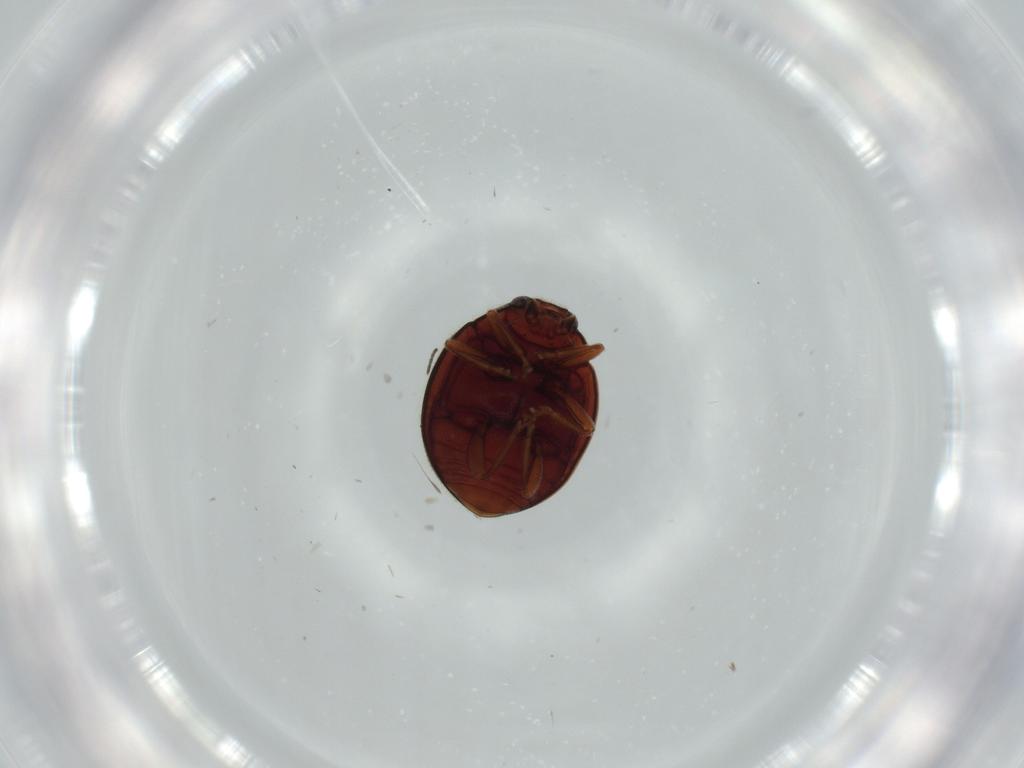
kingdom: Animalia
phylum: Arthropoda
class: Insecta
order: Coleoptera
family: Coccinellidae
